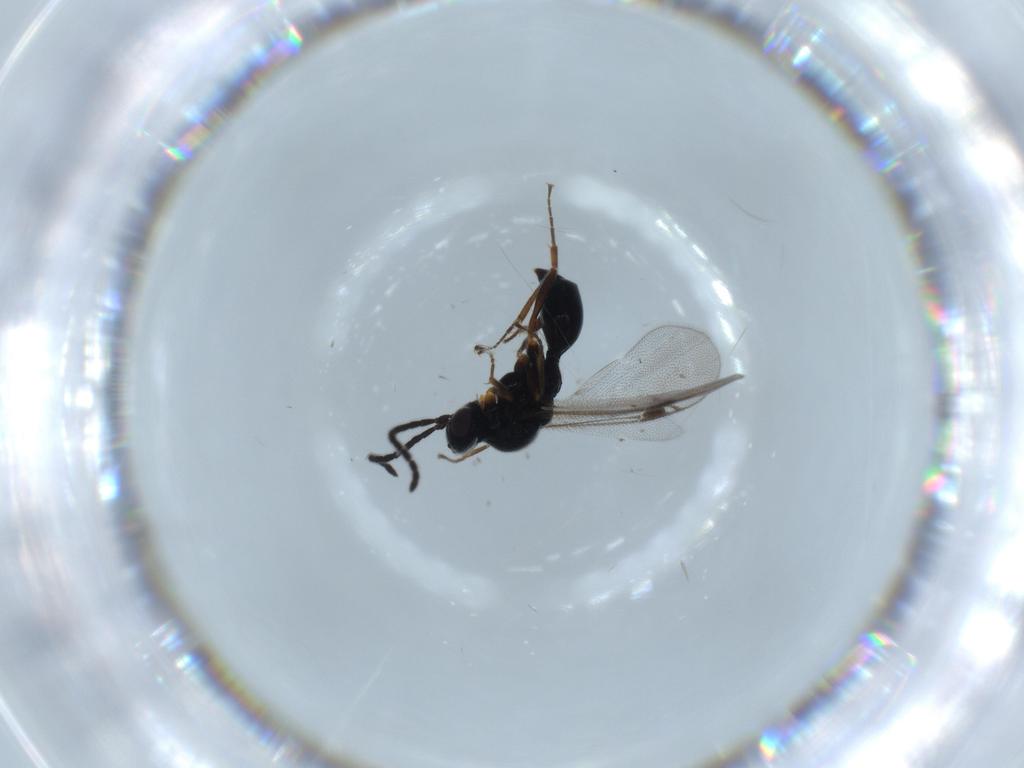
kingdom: Animalia
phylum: Arthropoda
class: Insecta
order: Hymenoptera
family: Proctotrupidae
